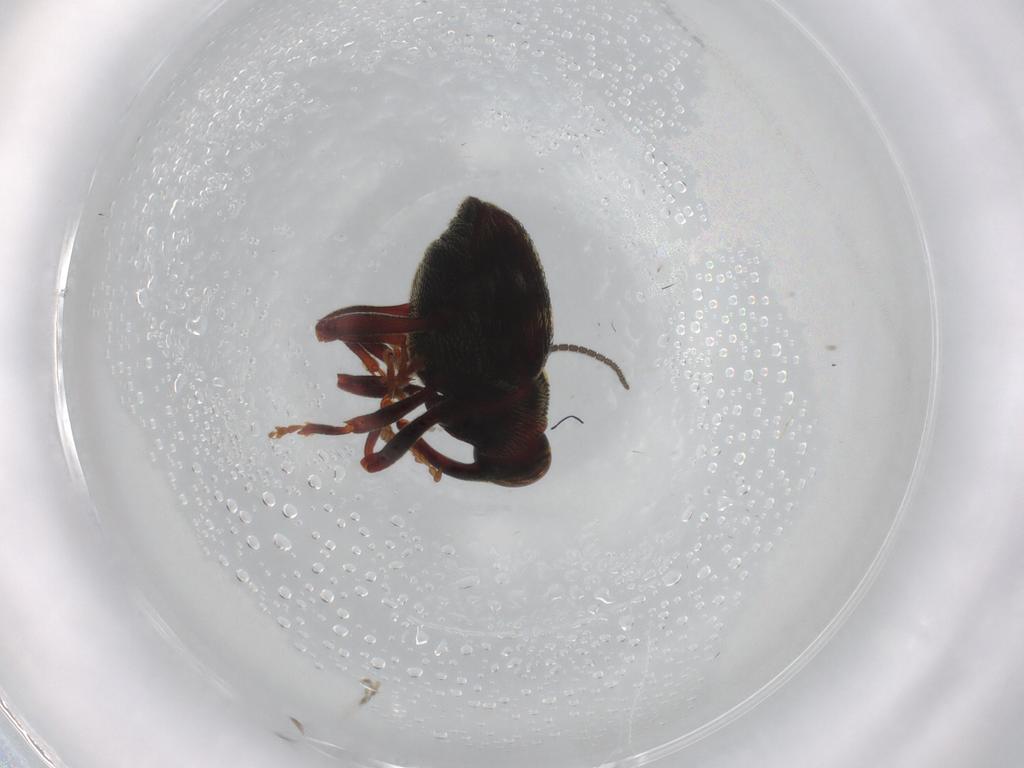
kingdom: Animalia
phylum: Arthropoda
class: Insecta
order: Coleoptera
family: Curculionidae
